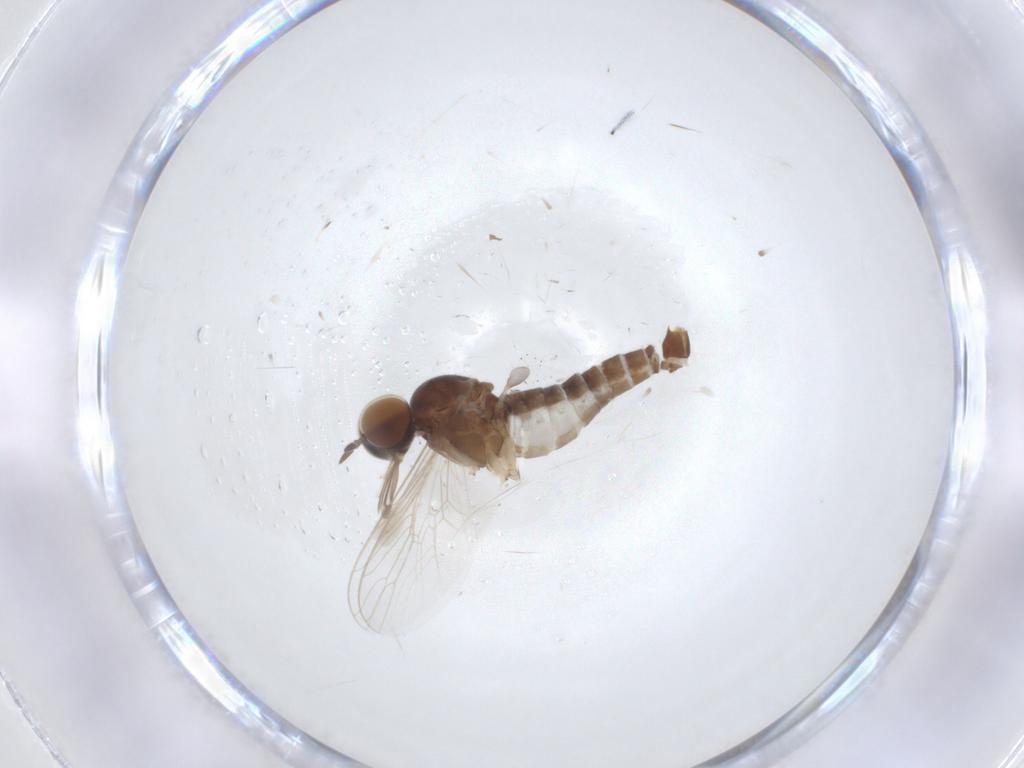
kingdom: Animalia
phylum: Arthropoda
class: Insecta
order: Diptera
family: Scenopinidae
